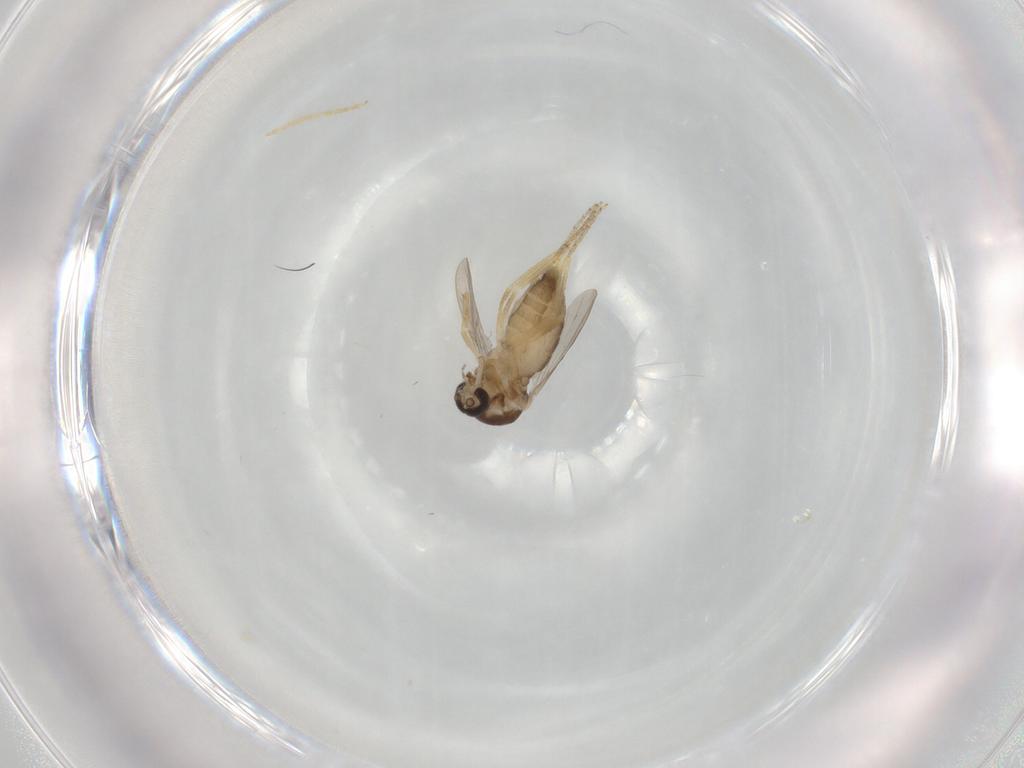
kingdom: Animalia
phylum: Arthropoda
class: Insecta
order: Diptera
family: Ceratopogonidae
